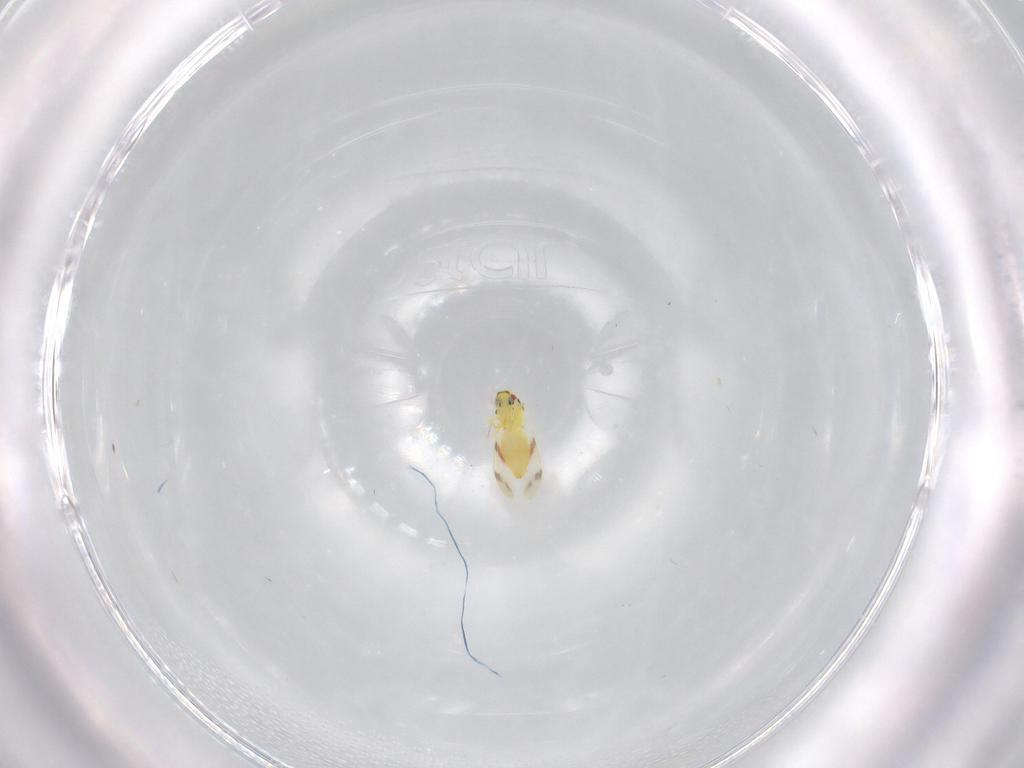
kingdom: Animalia
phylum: Arthropoda
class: Insecta
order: Hemiptera
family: Aleyrodidae
